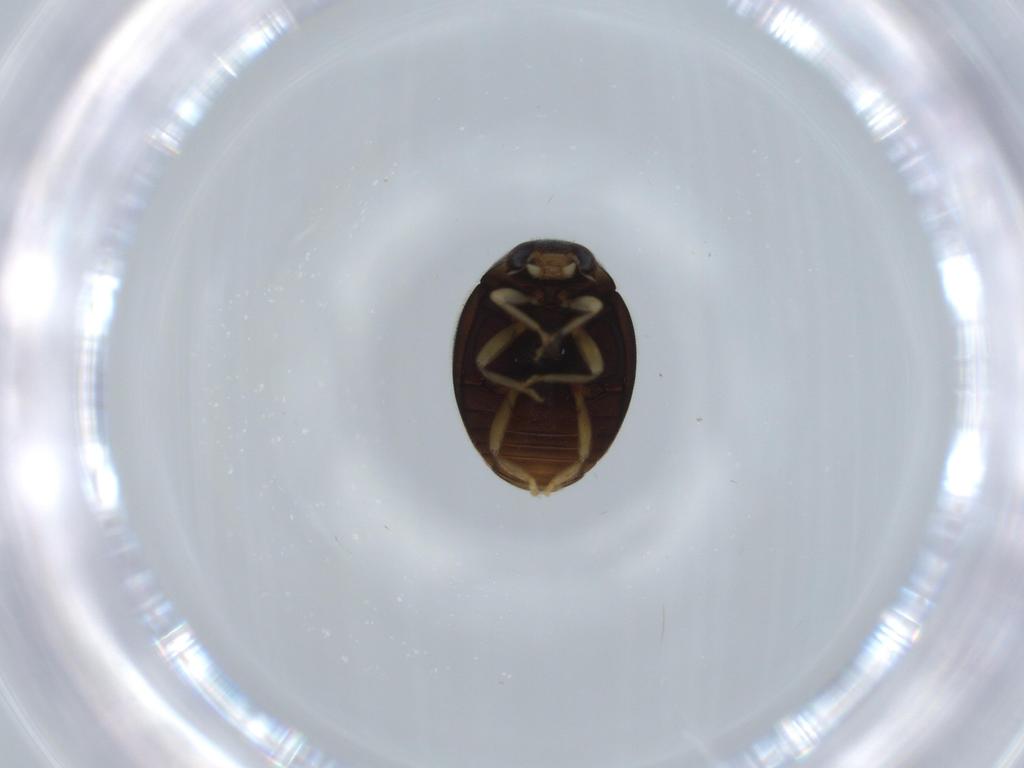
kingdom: Animalia
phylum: Arthropoda
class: Insecta
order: Coleoptera
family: Coccinellidae
